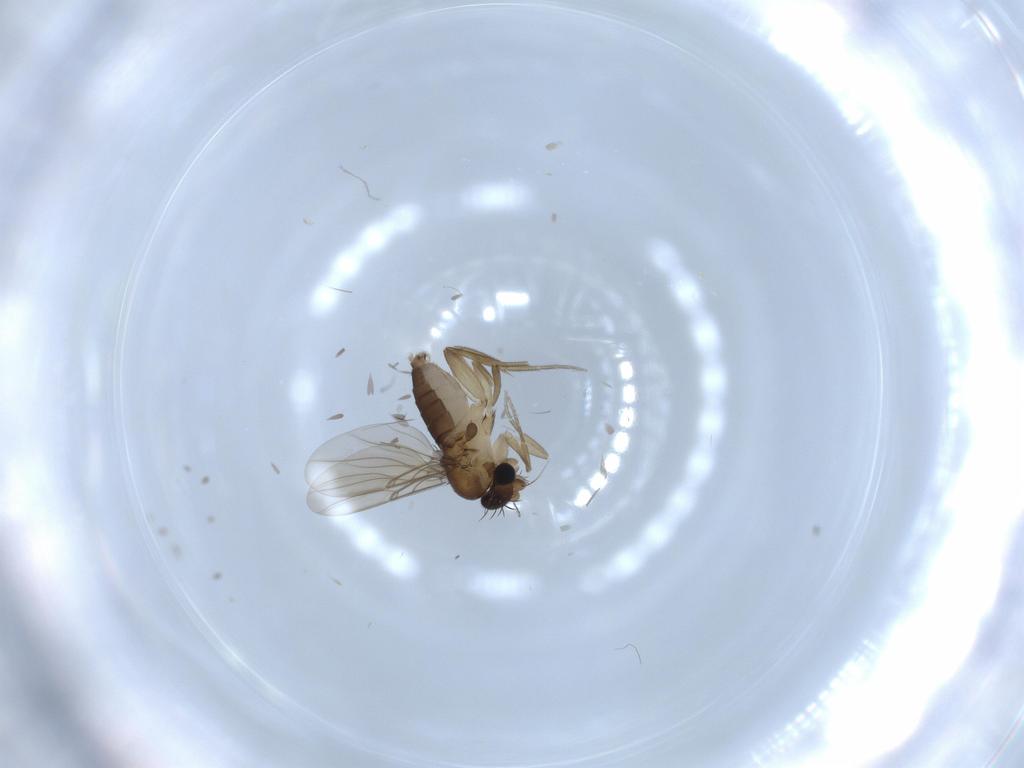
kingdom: Animalia
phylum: Arthropoda
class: Insecta
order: Diptera
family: Phoridae
